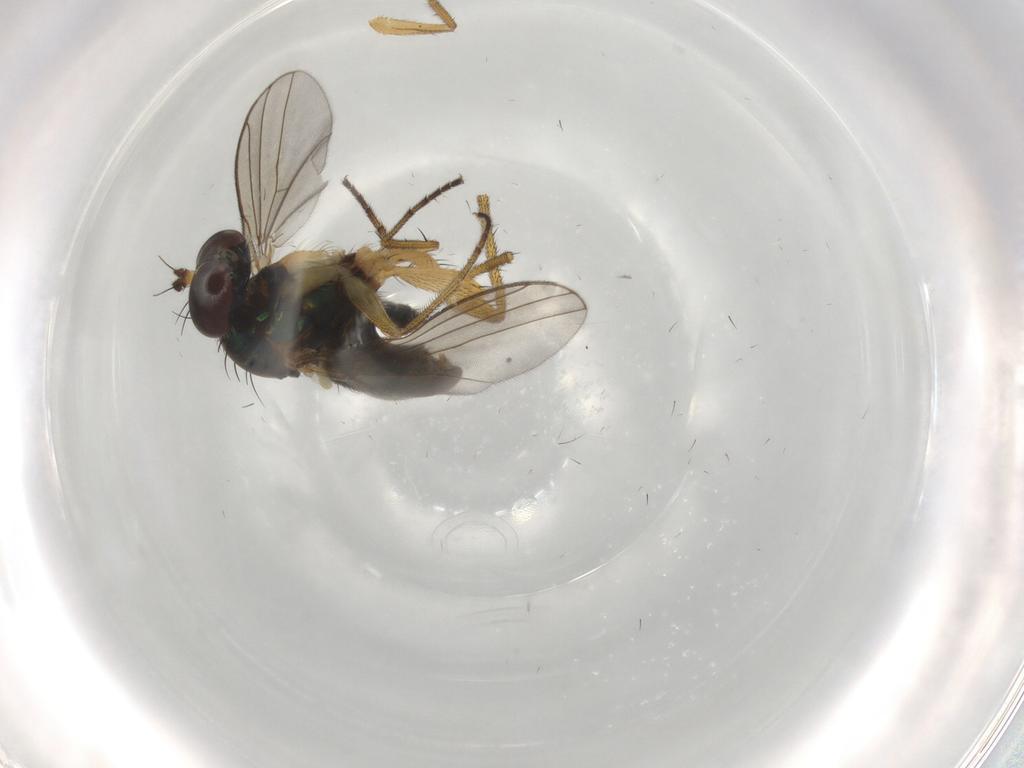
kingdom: Animalia
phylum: Arthropoda
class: Insecta
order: Diptera
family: Dolichopodidae
